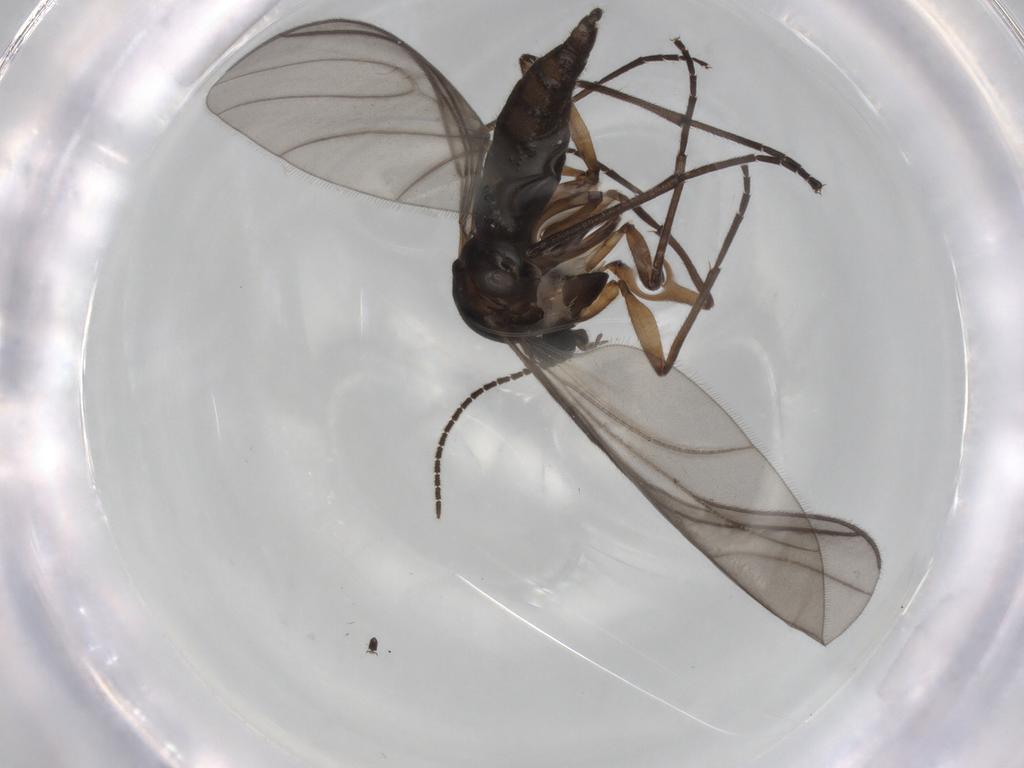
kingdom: Animalia
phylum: Arthropoda
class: Insecta
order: Diptera
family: Sciaridae
